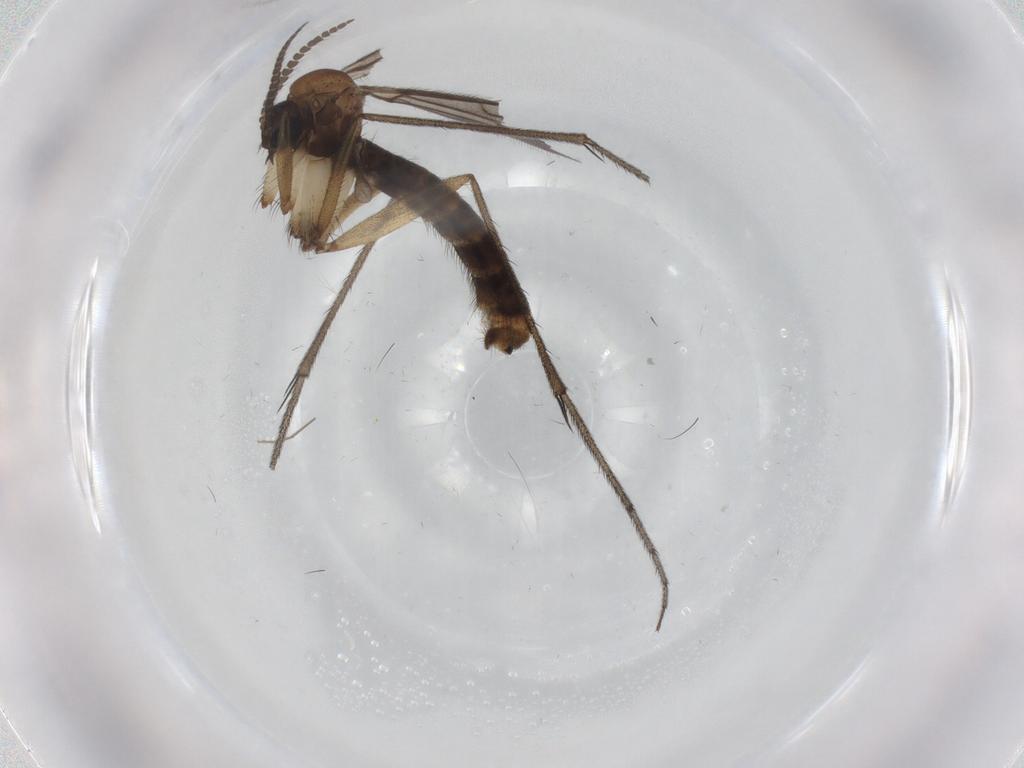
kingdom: Animalia
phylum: Arthropoda
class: Insecta
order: Diptera
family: Ditomyiidae
